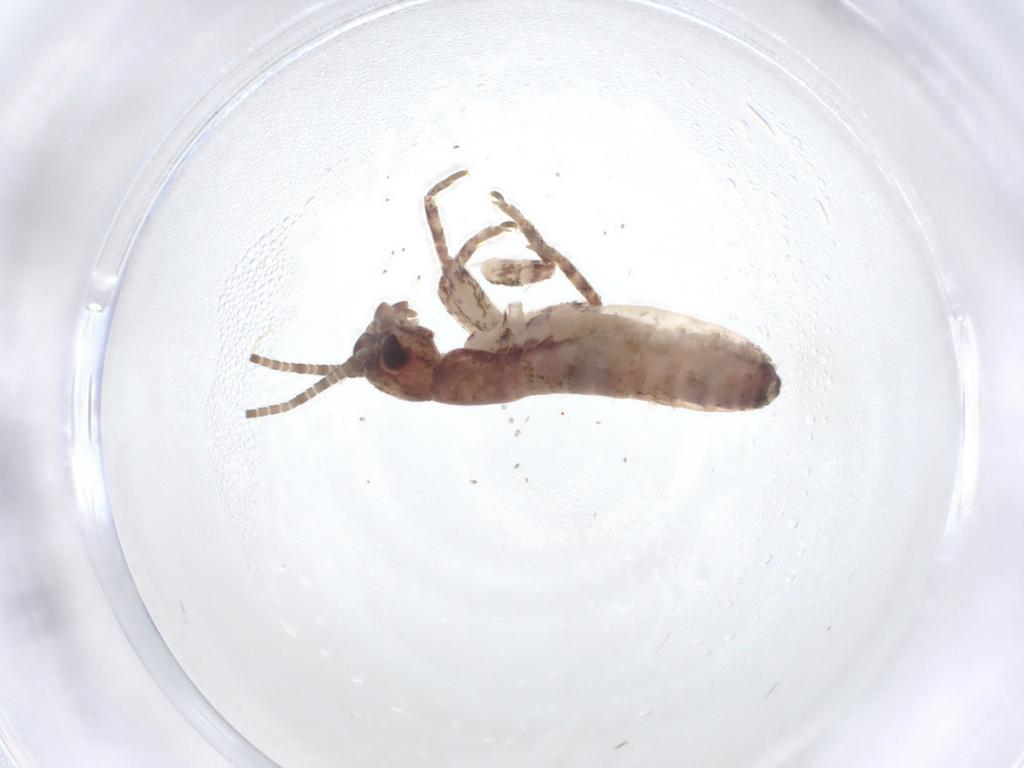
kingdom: Animalia
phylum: Arthropoda
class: Insecta
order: Orthoptera
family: Gryllidae
